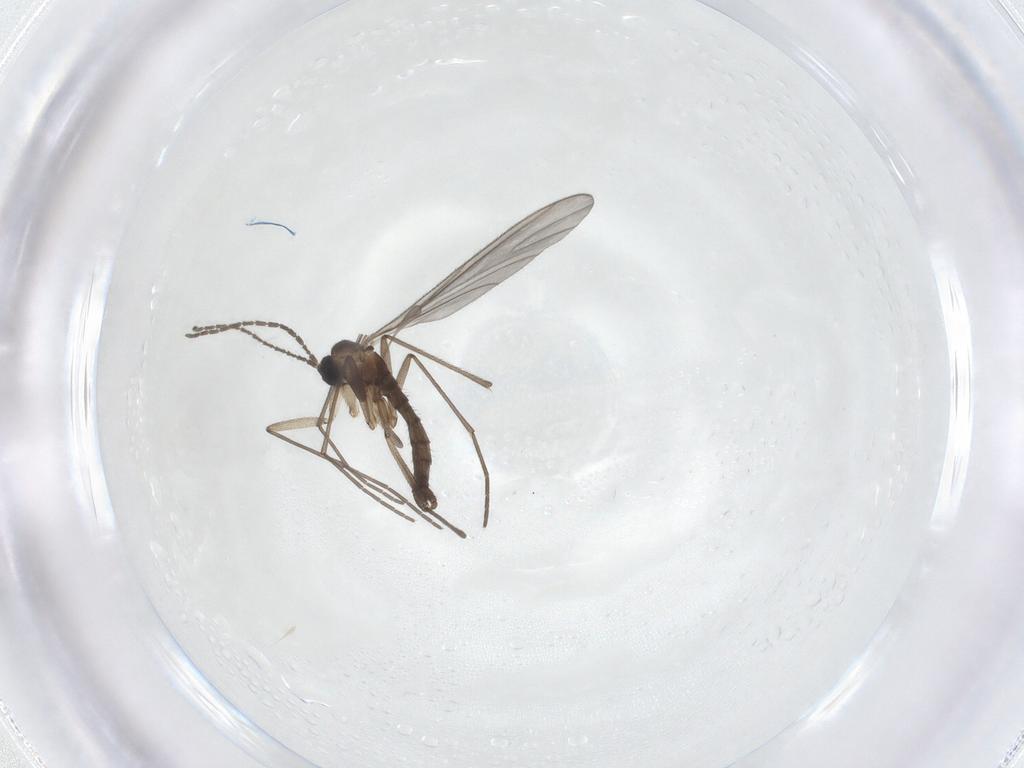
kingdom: Animalia
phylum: Arthropoda
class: Insecta
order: Diptera
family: Sciaridae
